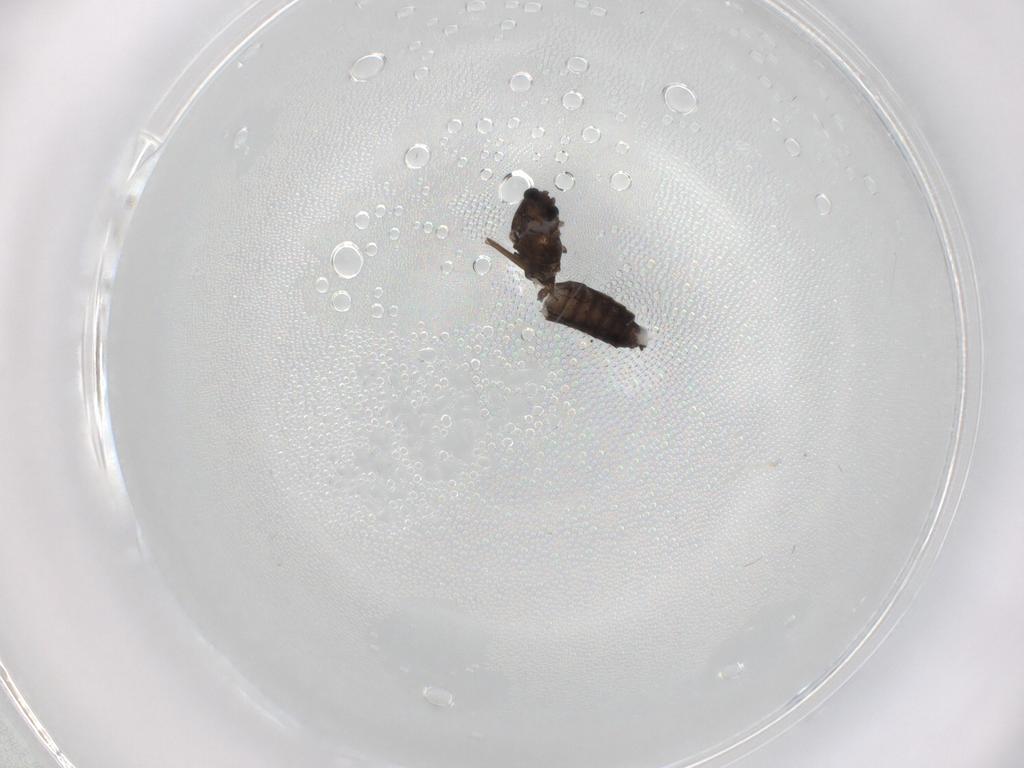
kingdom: Animalia
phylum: Arthropoda
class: Insecta
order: Diptera
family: Chironomidae
